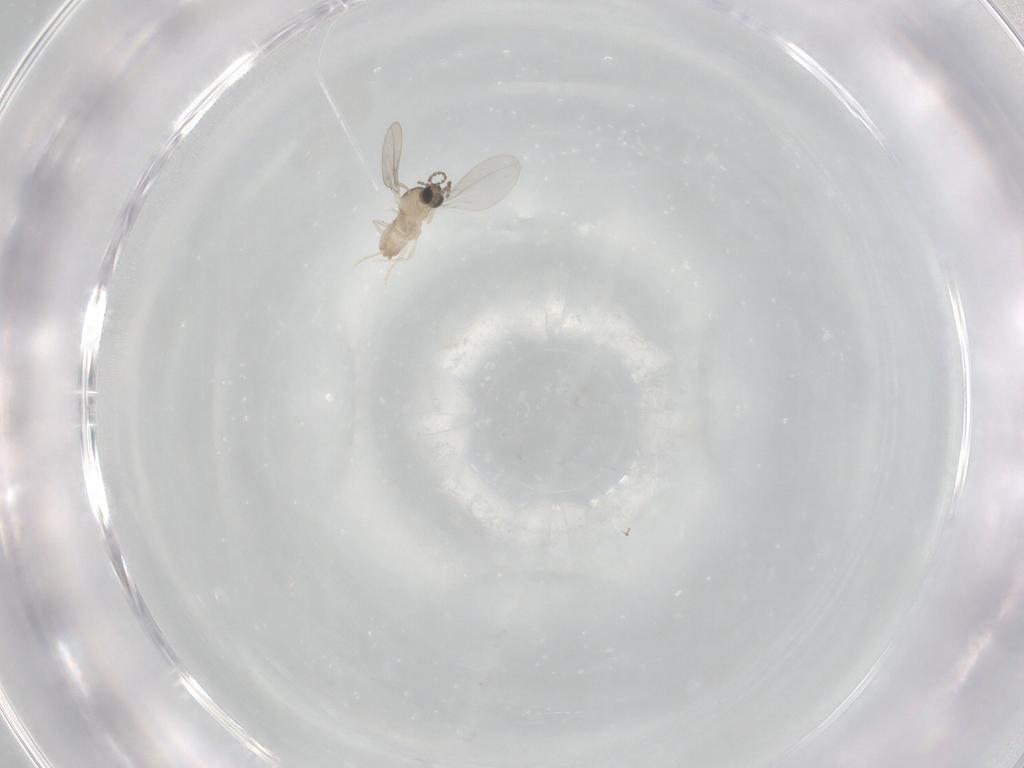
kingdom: Animalia
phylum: Arthropoda
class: Insecta
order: Diptera
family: Cecidomyiidae
